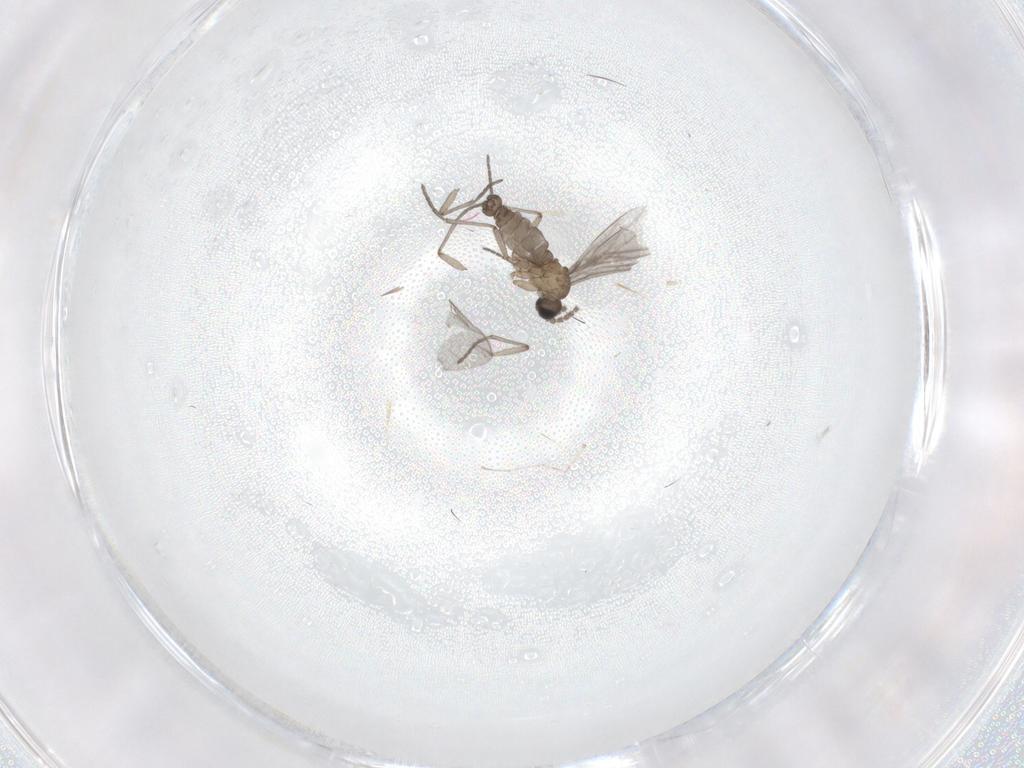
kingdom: Animalia
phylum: Arthropoda
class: Insecta
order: Diptera
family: Sciaridae
